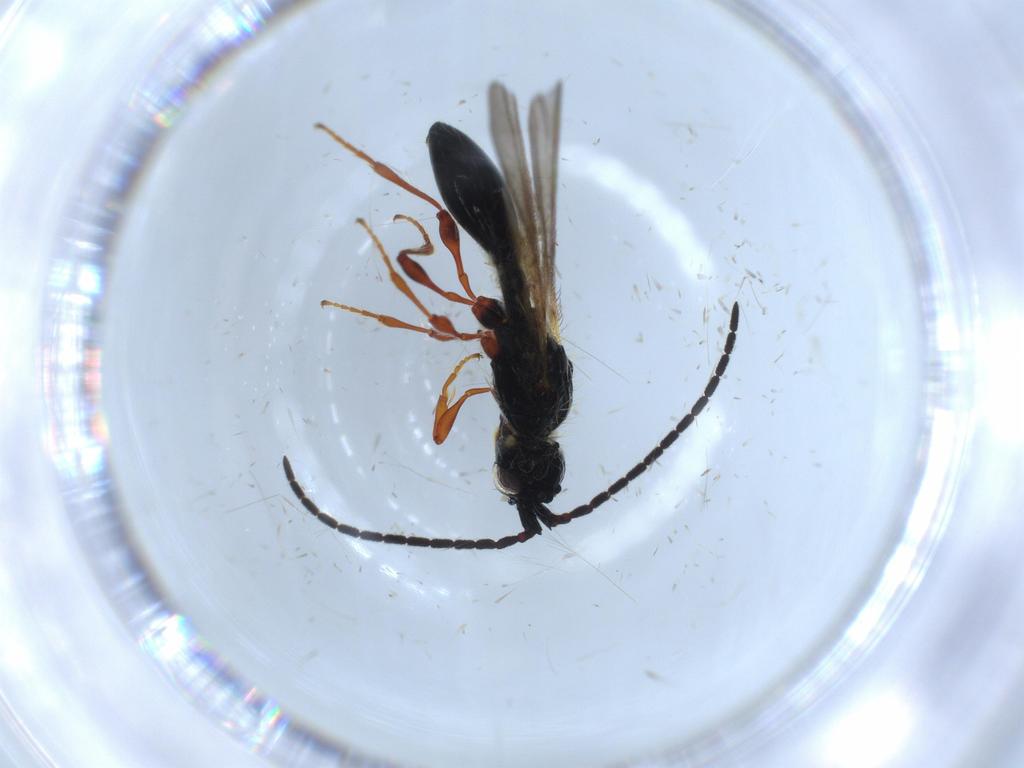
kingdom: Animalia
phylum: Arthropoda
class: Insecta
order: Hymenoptera
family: Diapriidae
